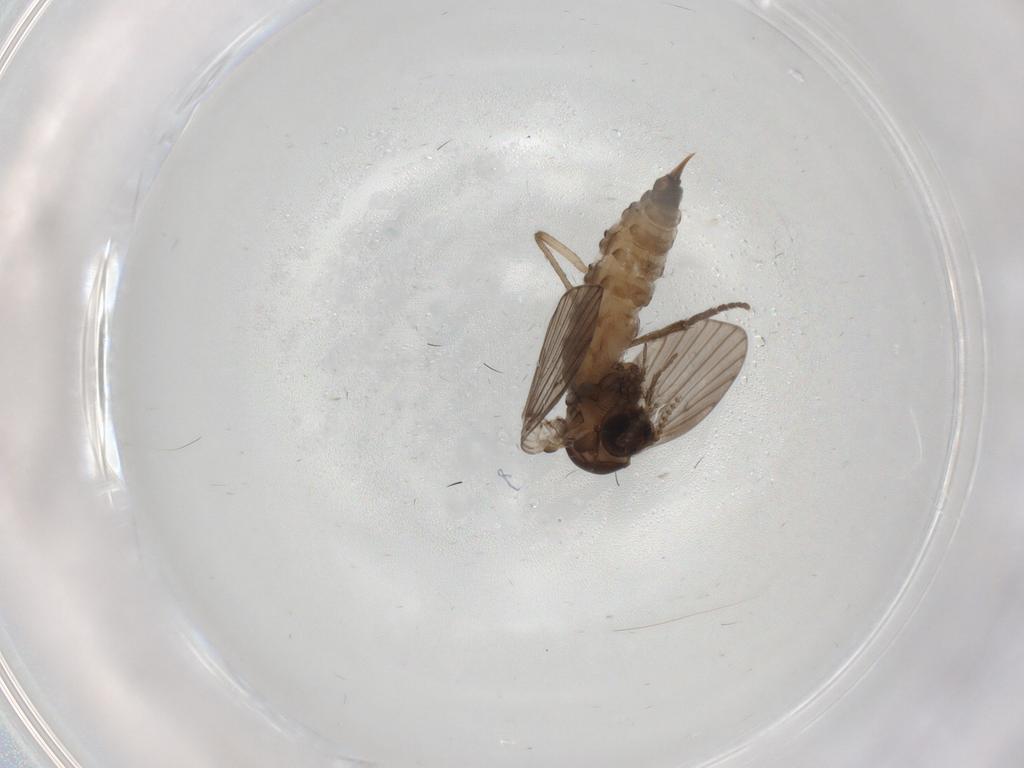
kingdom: Animalia
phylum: Arthropoda
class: Insecta
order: Diptera
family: Psychodidae
